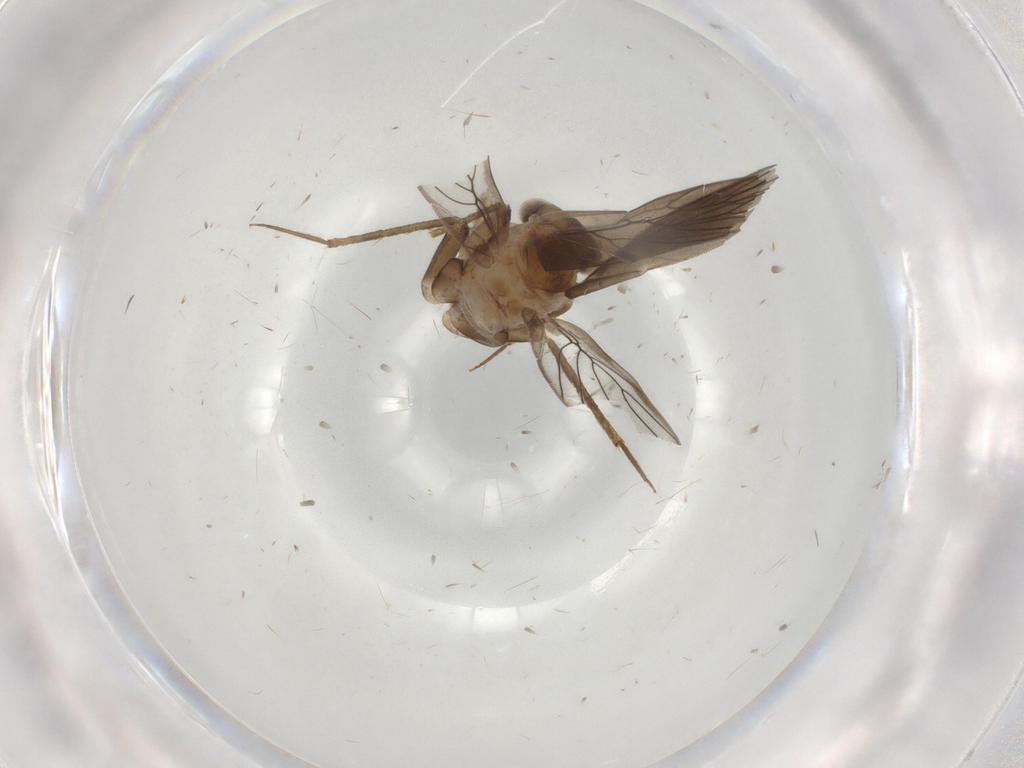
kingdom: Animalia
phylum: Arthropoda
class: Insecta
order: Psocodea
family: Lepidopsocidae
